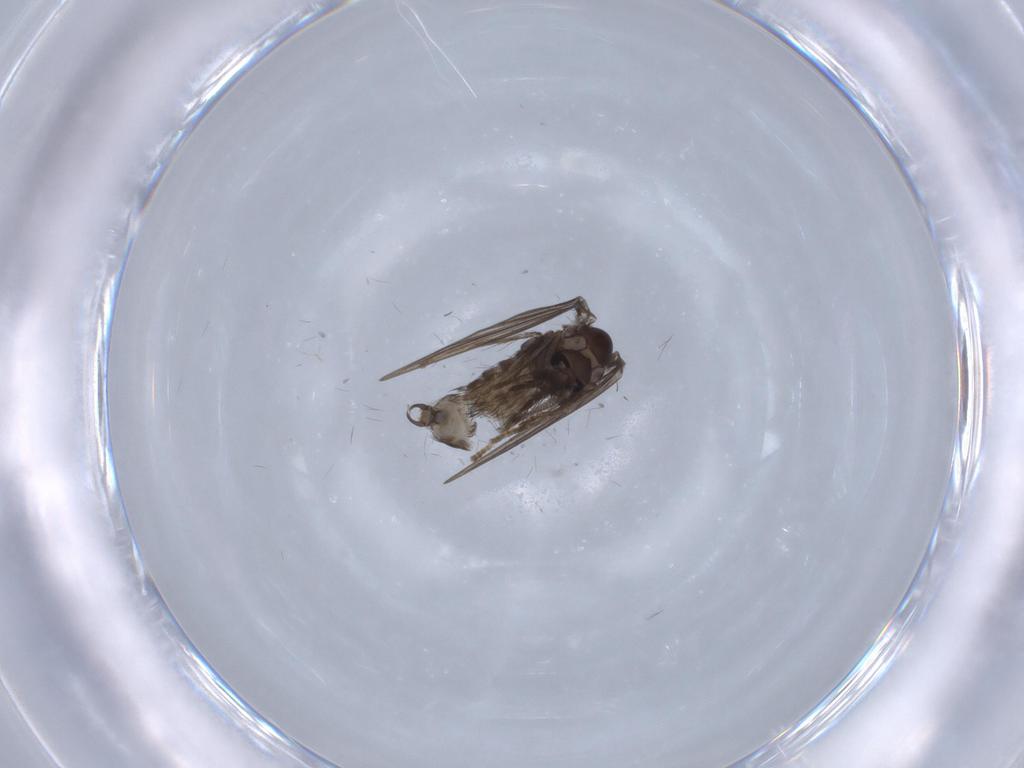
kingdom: Animalia
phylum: Arthropoda
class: Insecta
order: Diptera
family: Psychodidae
